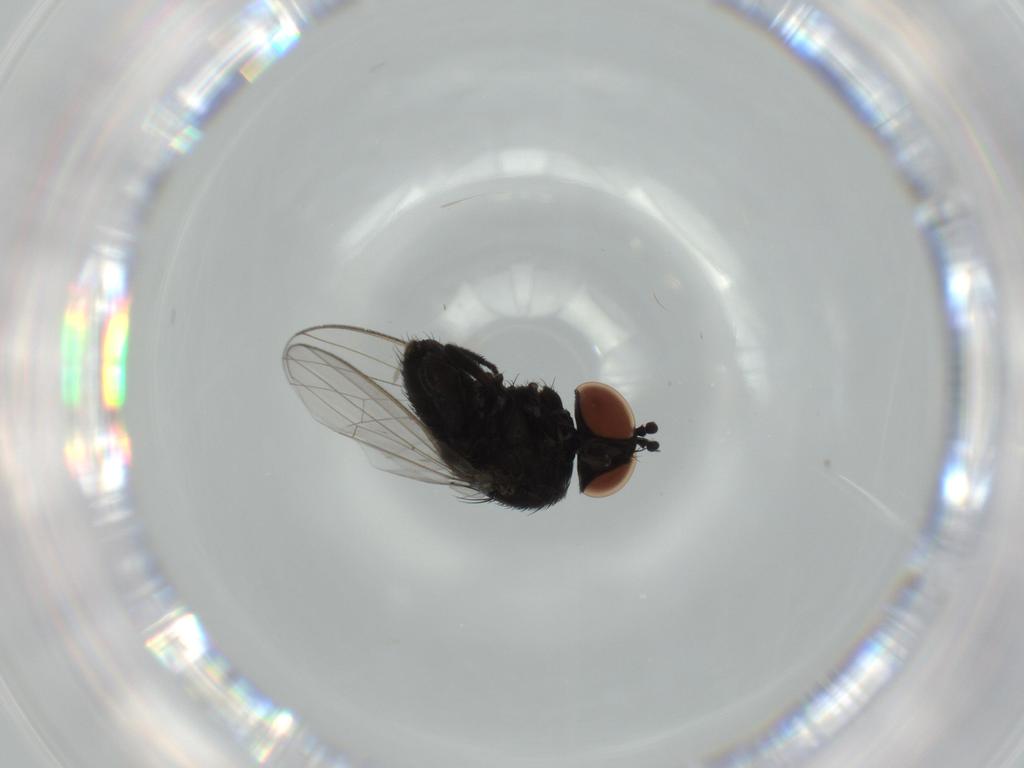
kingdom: Animalia
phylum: Arthropoda
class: Insecta
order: Diptera
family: Milichiidae
